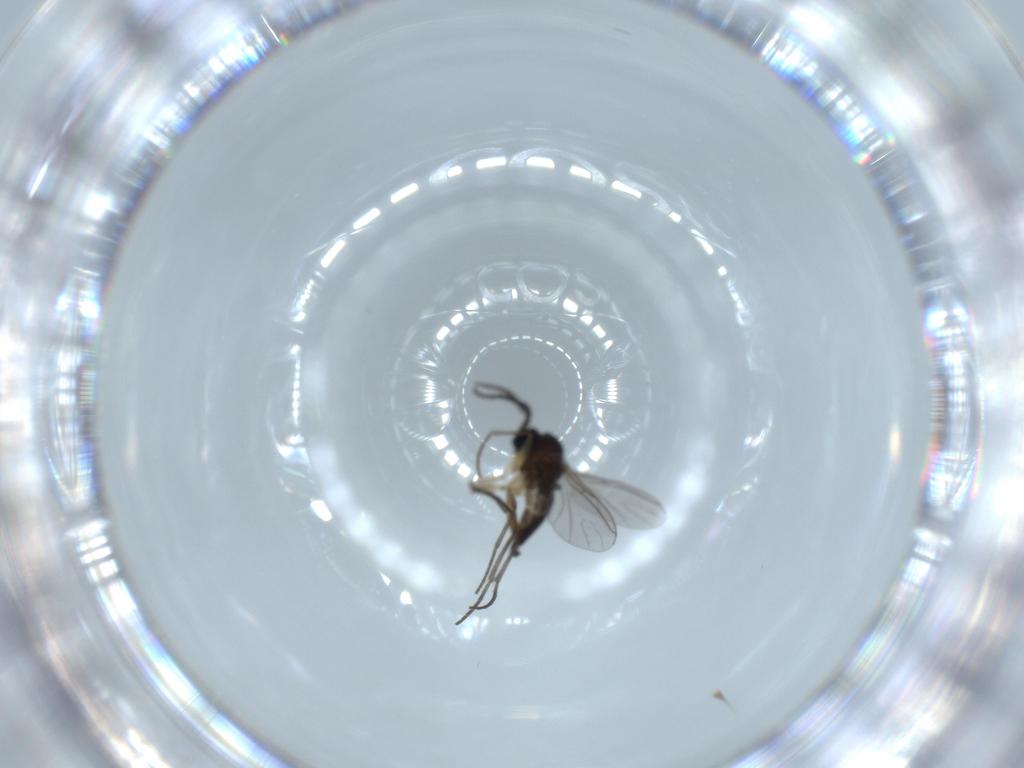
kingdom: Animalia
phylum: Arthropoda
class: Insecta
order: Diptera
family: Sciaridae
